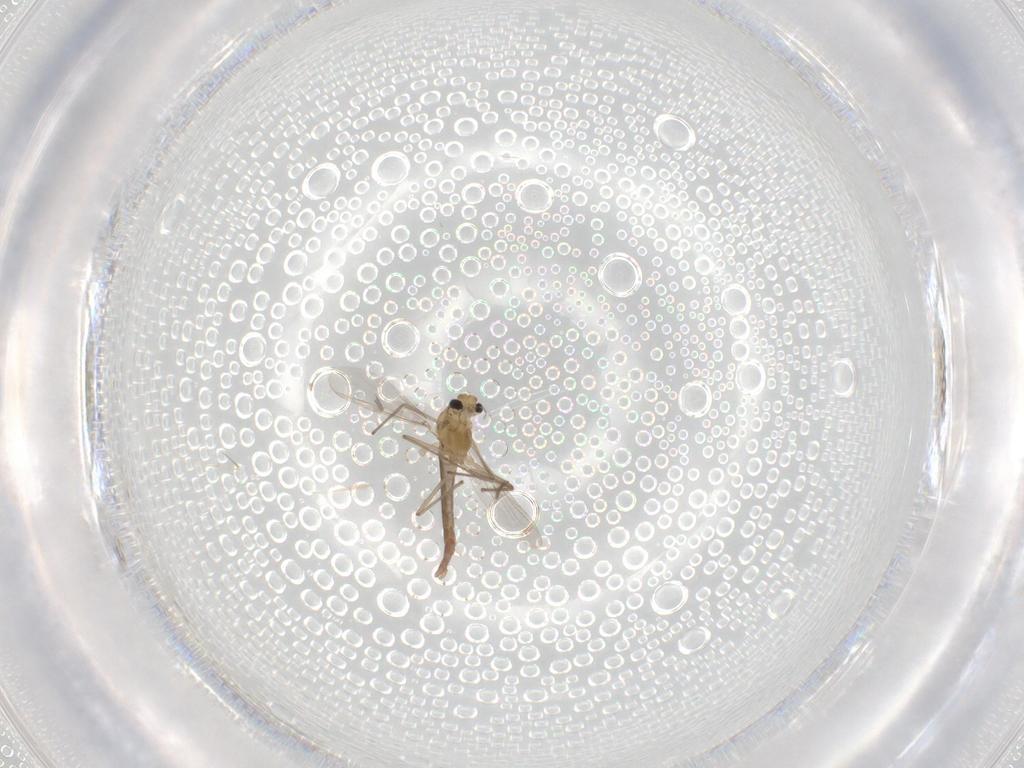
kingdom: Animalia
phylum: Arthropoda
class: Insecta
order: Diptera
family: Chironomidae
